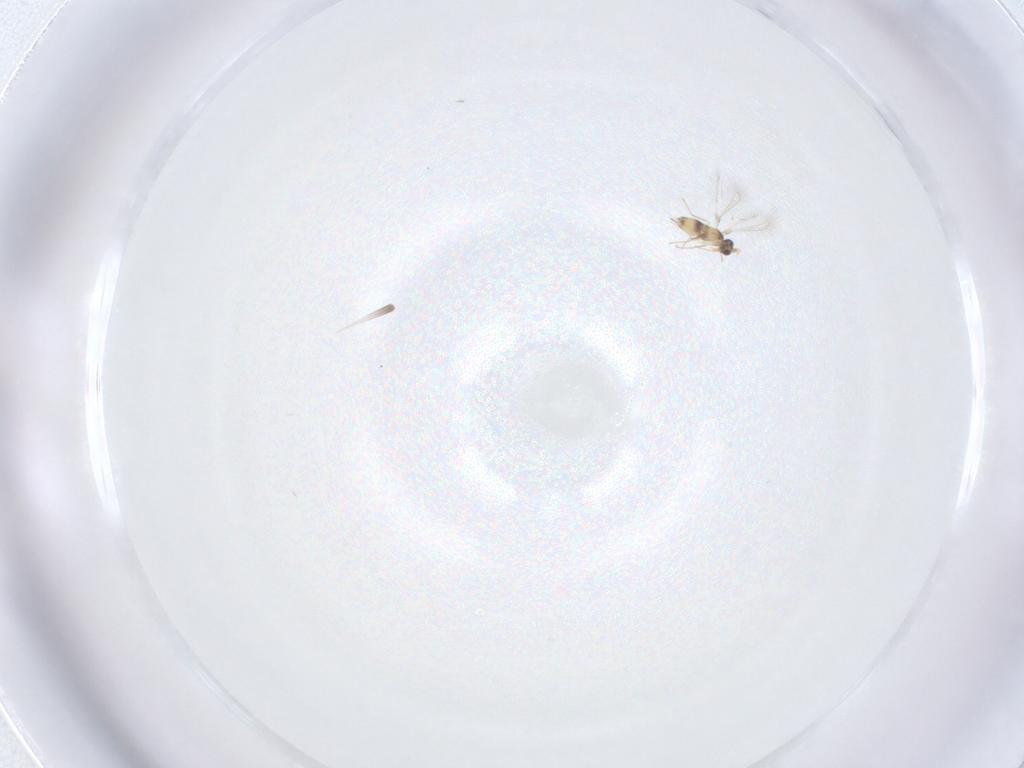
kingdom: Animalia
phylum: Arthropoda
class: Insecta
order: Hymenoptera
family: Mymaridae
